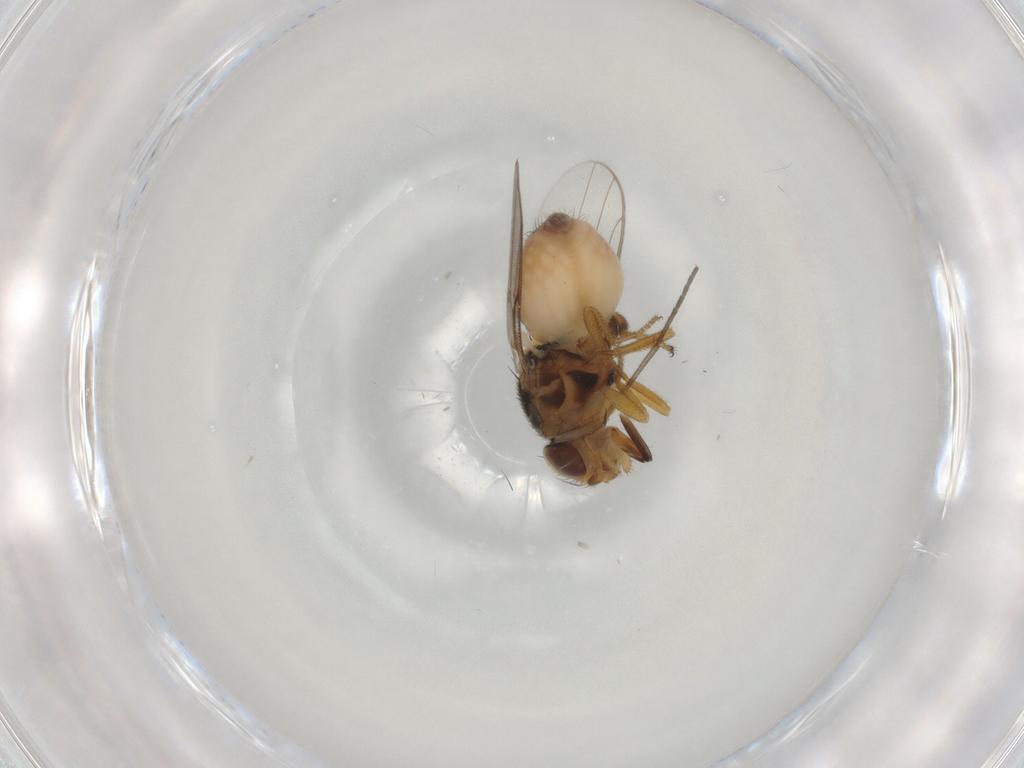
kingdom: Animalia
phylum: Arthropoda
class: Insecta
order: Diptera
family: Chloropidae
